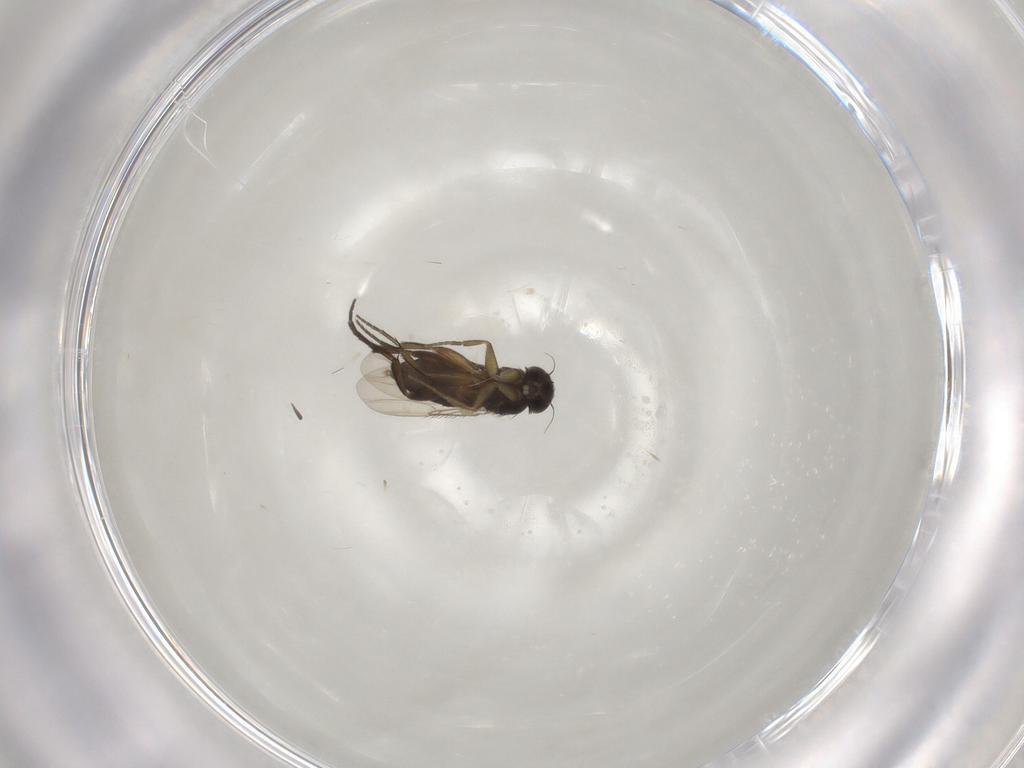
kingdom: Animalia
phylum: Arthropoda
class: Insecta
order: Diptera
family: Phoridae
